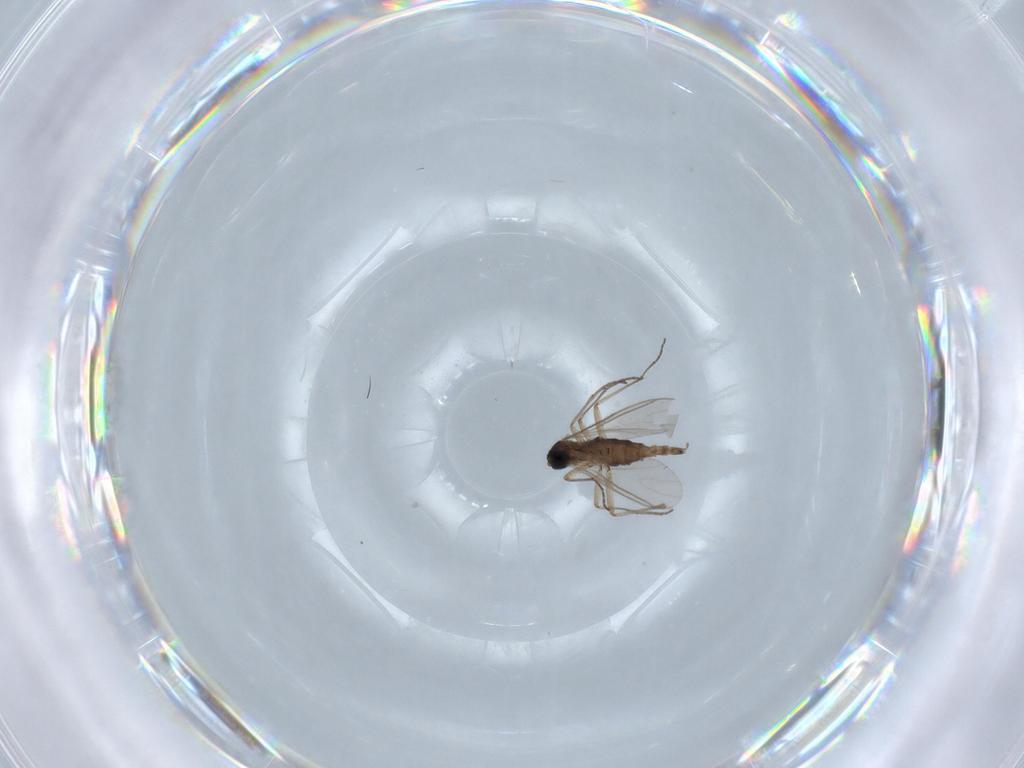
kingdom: Animalia
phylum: Arthropoda
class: Insecta
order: Diptera
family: Sciaridae
